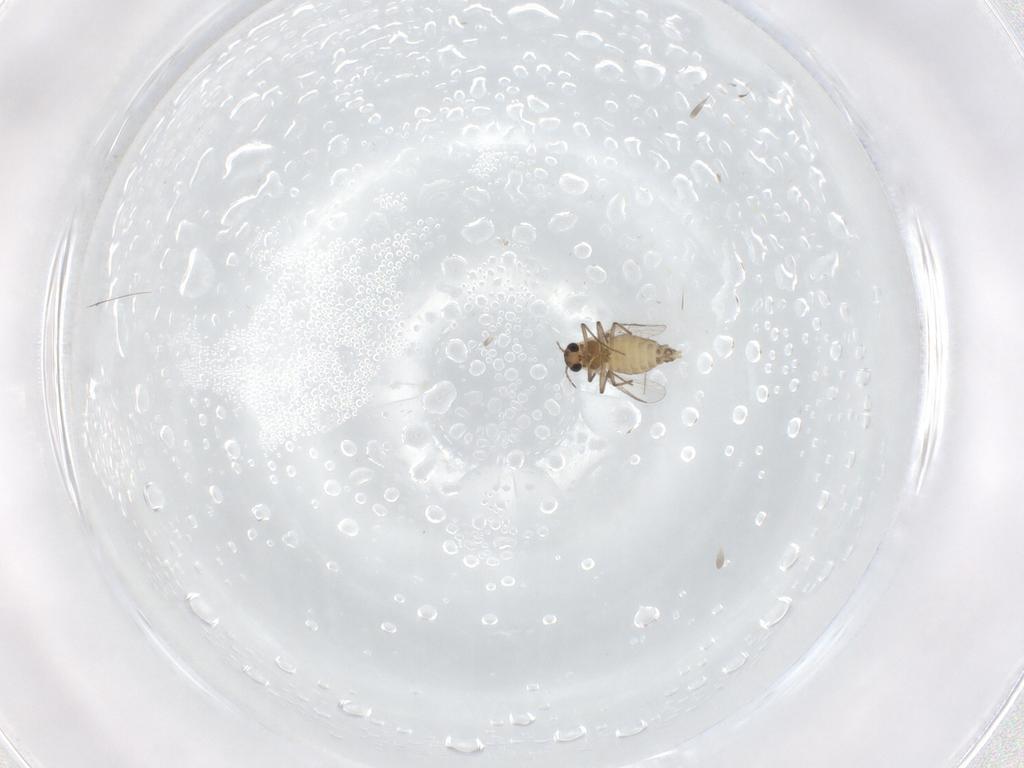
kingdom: Animalia
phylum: Arthropoda
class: Insecta
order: Diptera
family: Chironomidae
